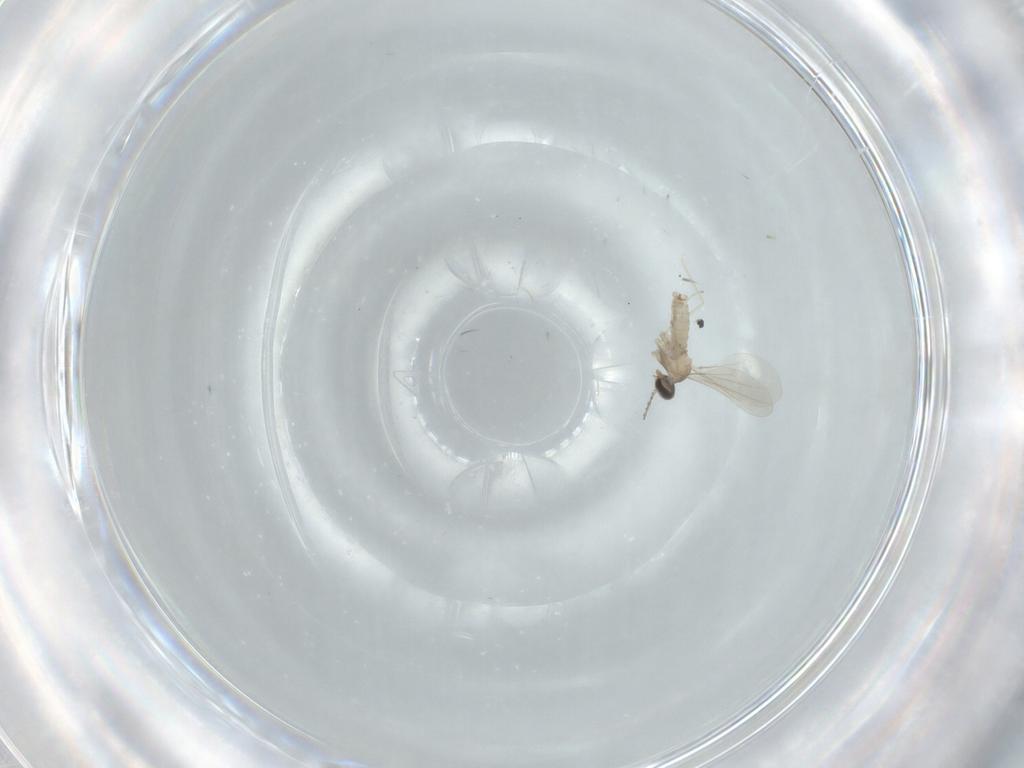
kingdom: Animalia
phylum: Arthropoda
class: Insecta
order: Diptera
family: Cecidomyiidae
